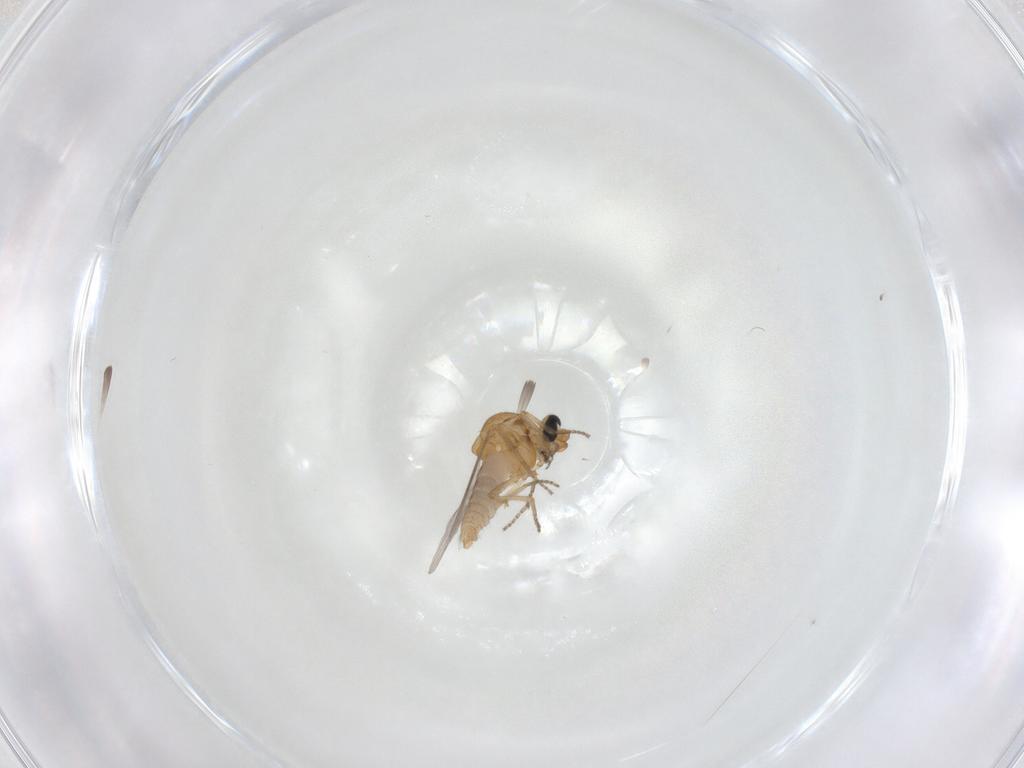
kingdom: Animalia
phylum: Arthropoda
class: Insecta
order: Diptera
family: Ceratopogonidae
